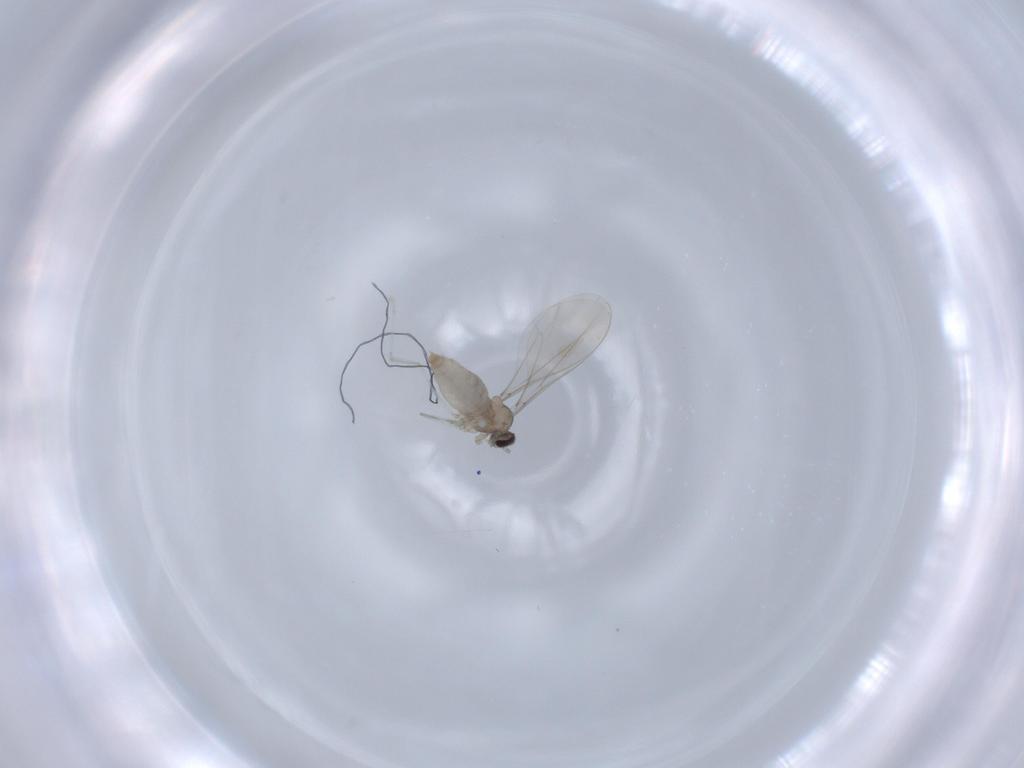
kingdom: Animalia
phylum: Arthropoda
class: Insecta
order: Diptera
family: Cecidomyiidae
